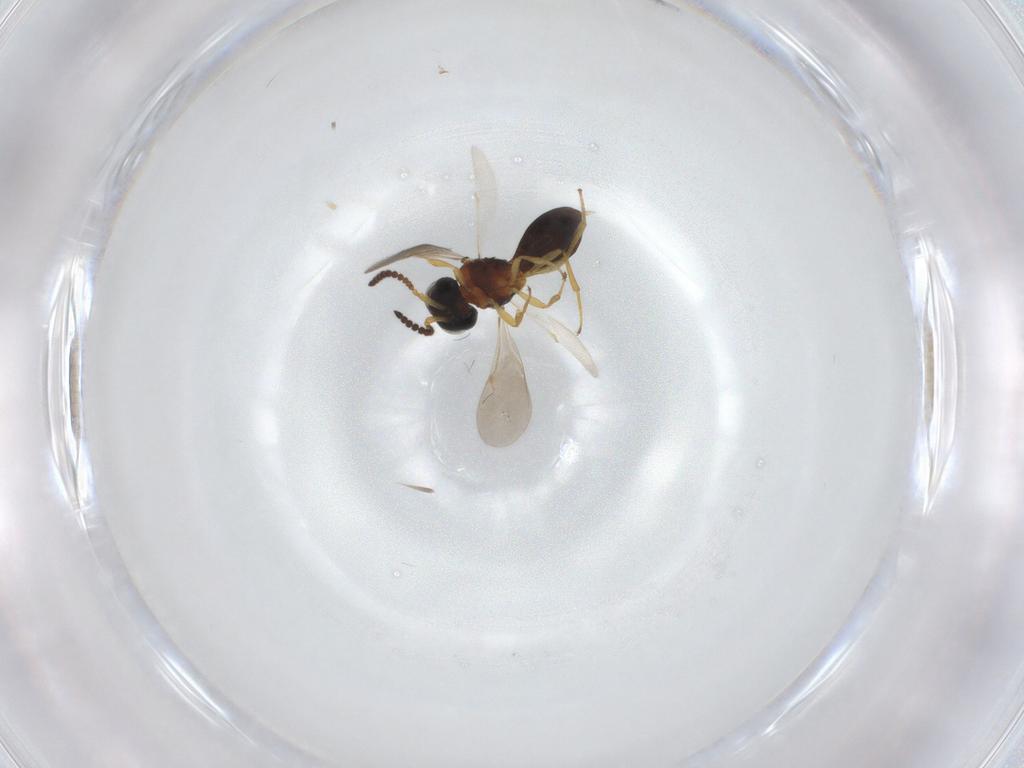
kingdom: Animalia
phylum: Arthropoda
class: Insecta
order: Hymenoptera
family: Scelionidae
